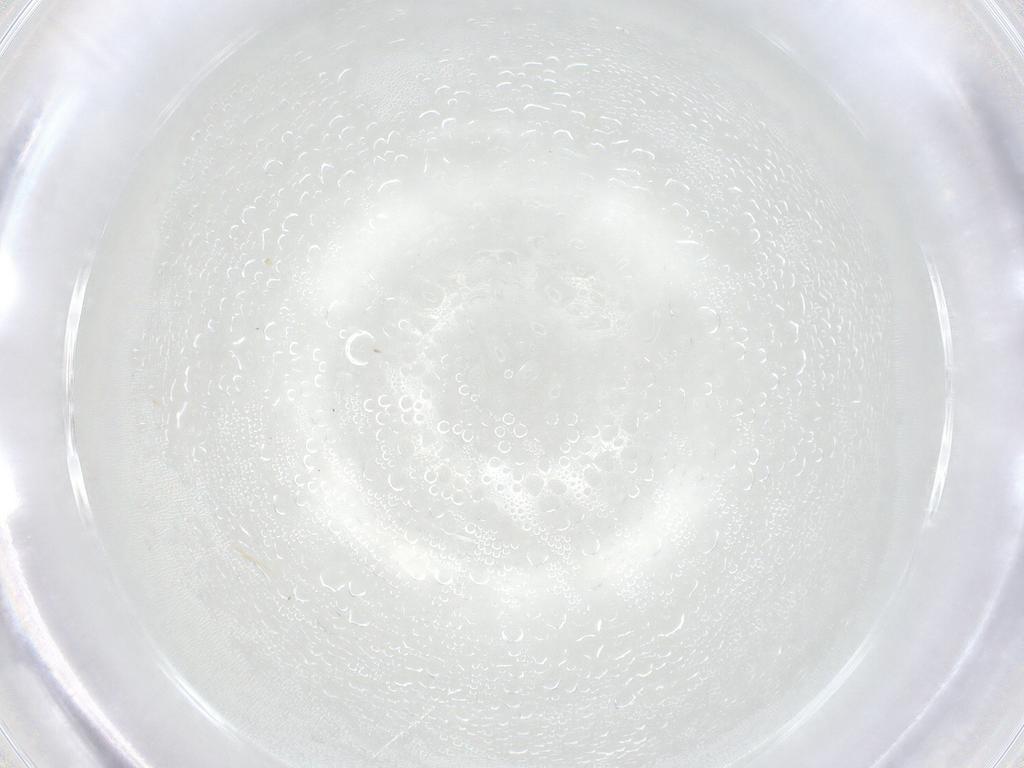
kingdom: Animalia
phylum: Arthropoda
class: Insecta
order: Diptera
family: Cecidomyiidae
